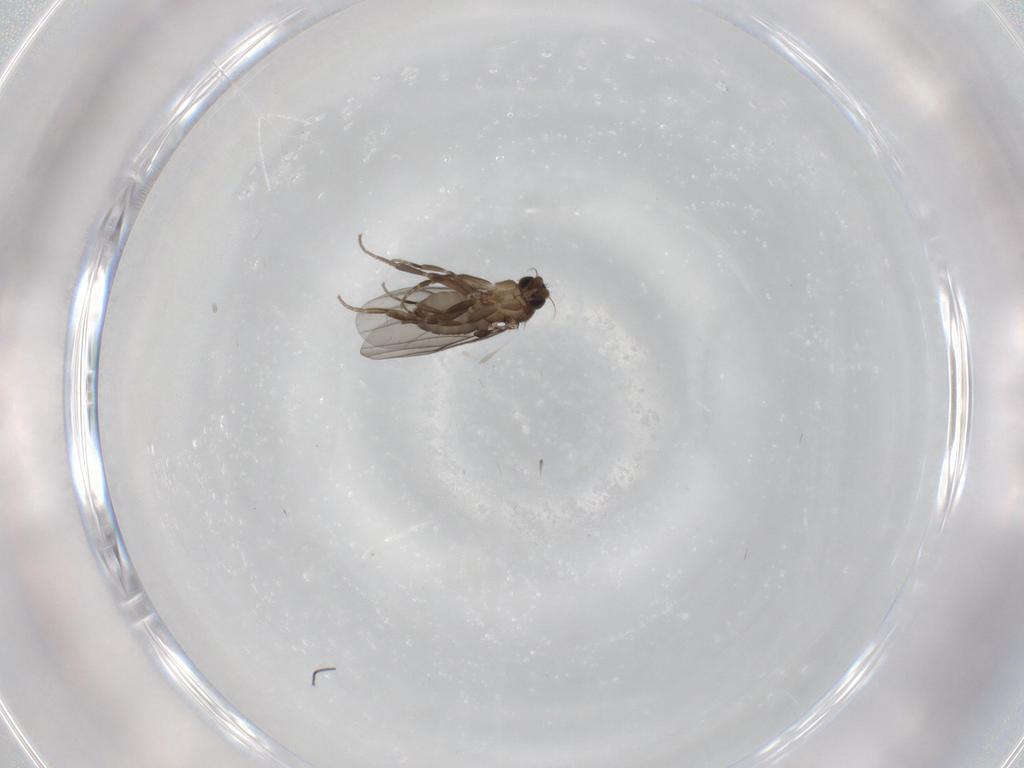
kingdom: Animalia
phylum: Arthropoda
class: Insecta
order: Diptera
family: Phoridae
